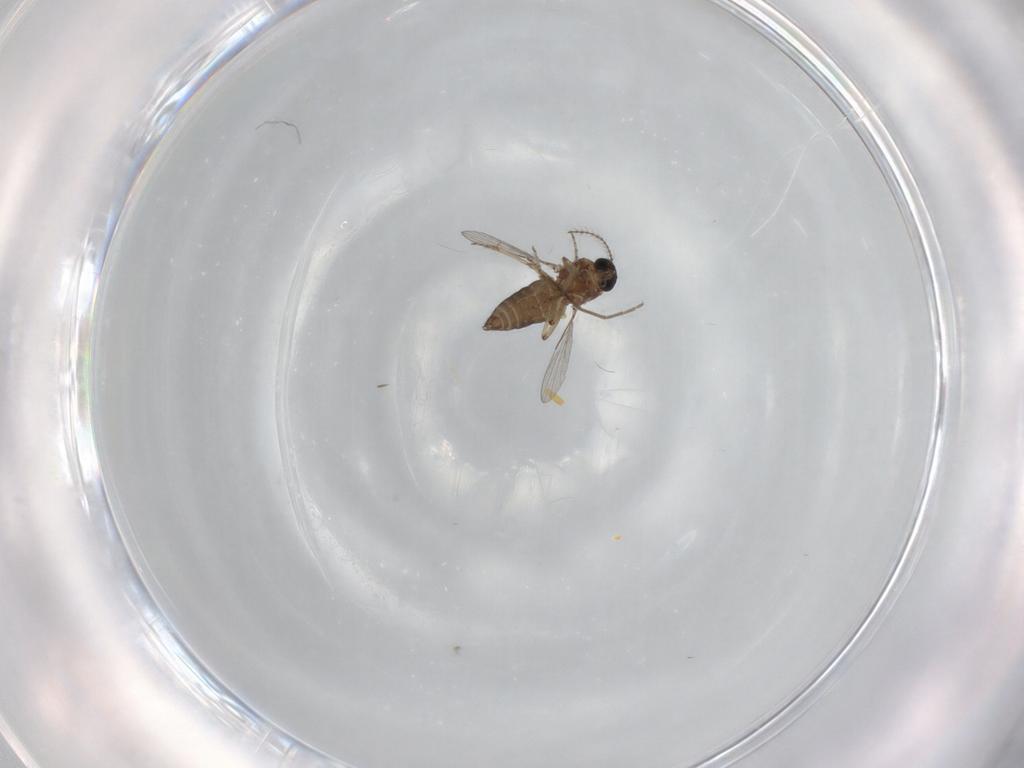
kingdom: Animalia
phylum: Arthropoda
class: Insecta
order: Diptera
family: Ceratopogonidae
